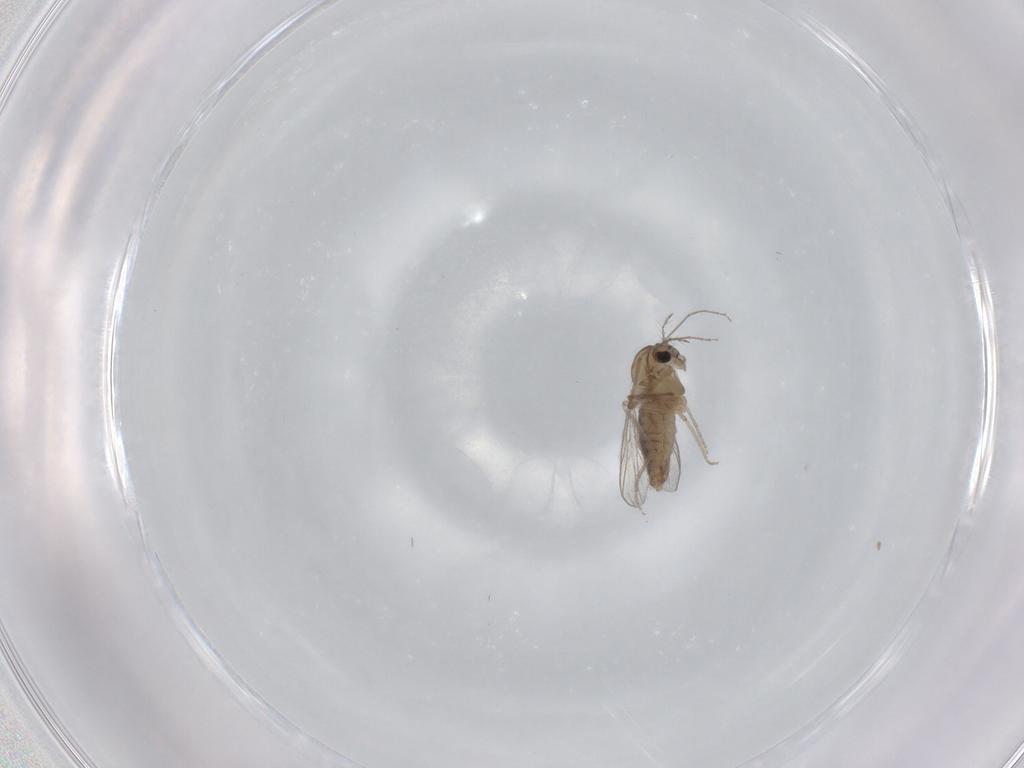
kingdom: Animalia
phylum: Arthropoda
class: Insecta
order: Diptera
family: Chironomidae
